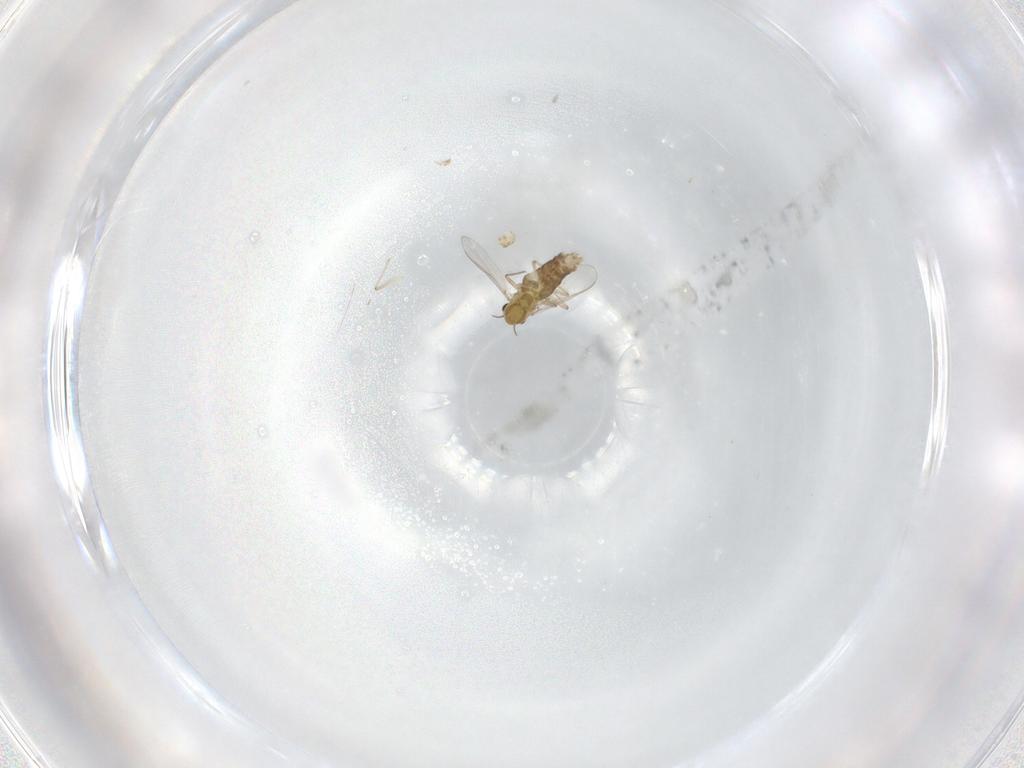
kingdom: Animalia
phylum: Arthropoda
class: Insecta
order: Diptera
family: Chironomidae
